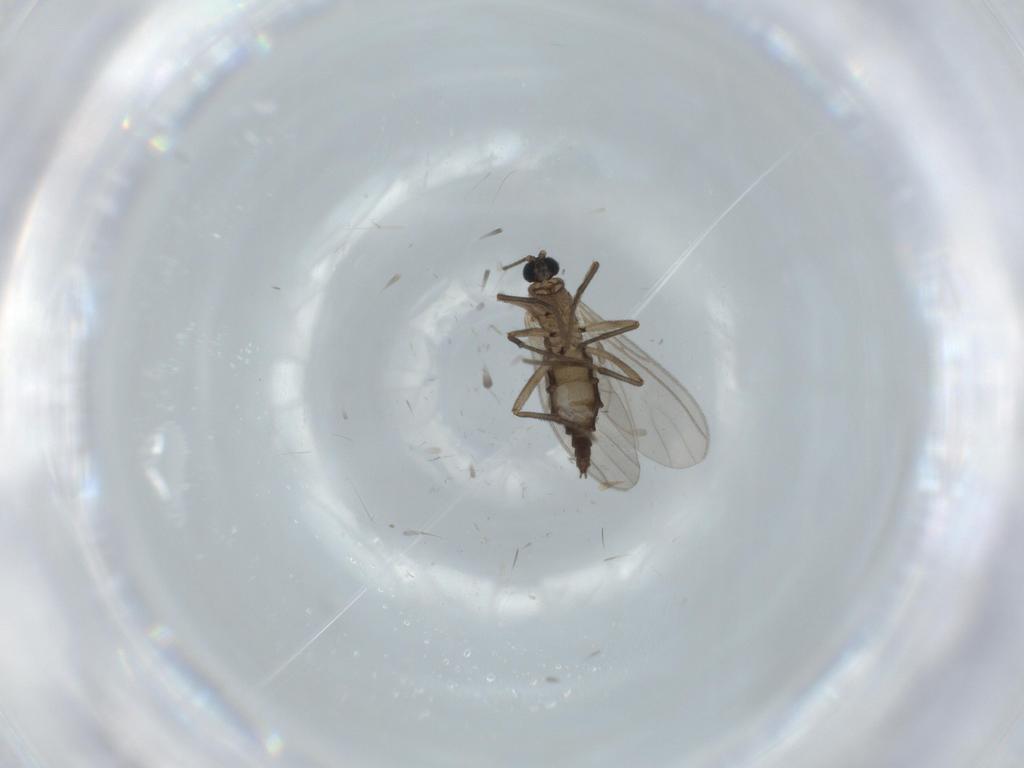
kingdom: Animalia
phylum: Arthropoda
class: Insecta
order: Diptera
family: Sciaridae
